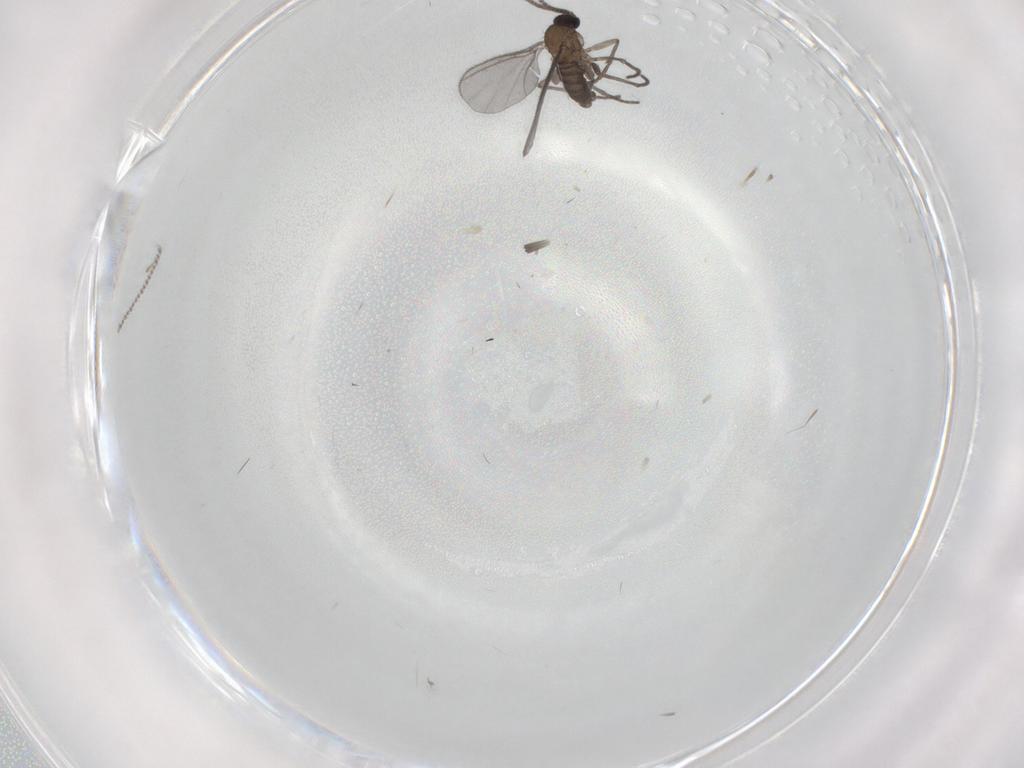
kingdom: Animalia
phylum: Arthropoda
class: Insecta
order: Diptera
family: Sciaridae
